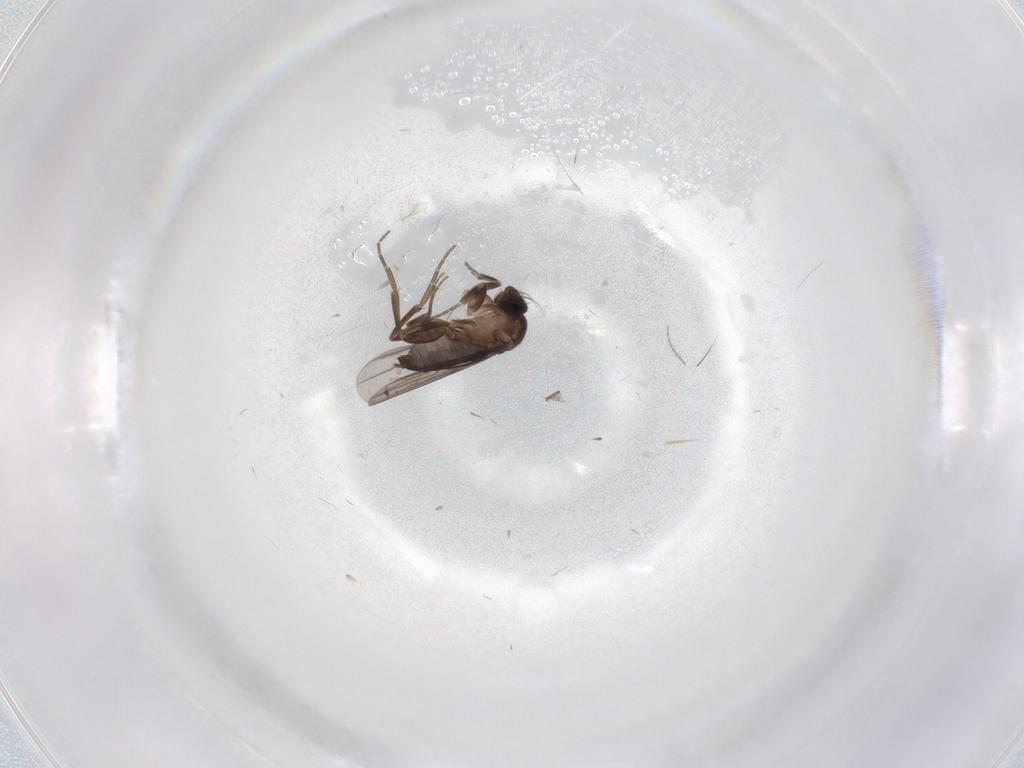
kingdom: Animalia
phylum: Arthropoda
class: Insecta
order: Diptera
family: Phoridae
